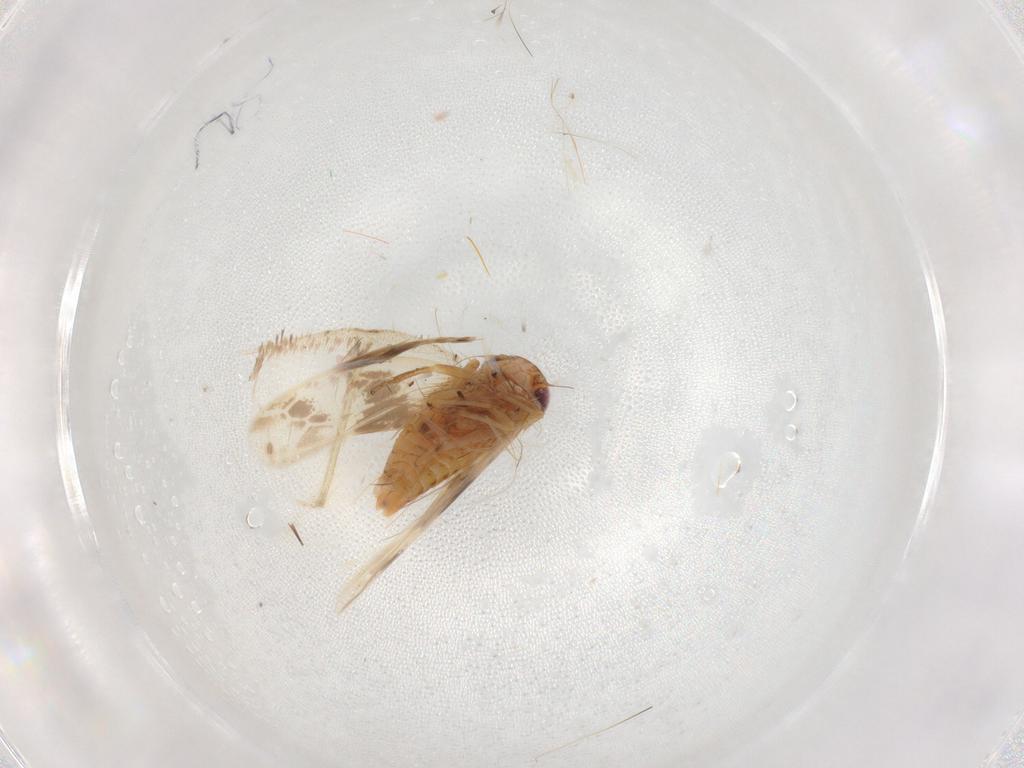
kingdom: Animalia
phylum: Arthropoda
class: Insecta
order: Hemiptera
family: Cicadellidae
